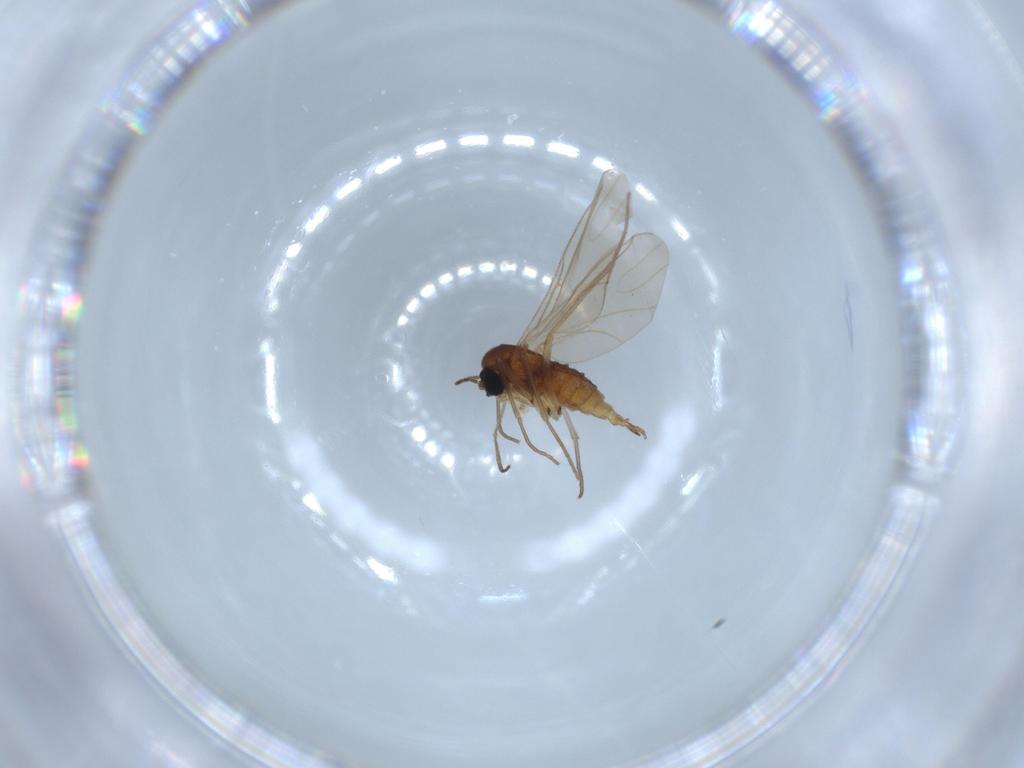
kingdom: Animalia
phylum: Arthropoda
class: Insecta
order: Diptera
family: Sciaridae
